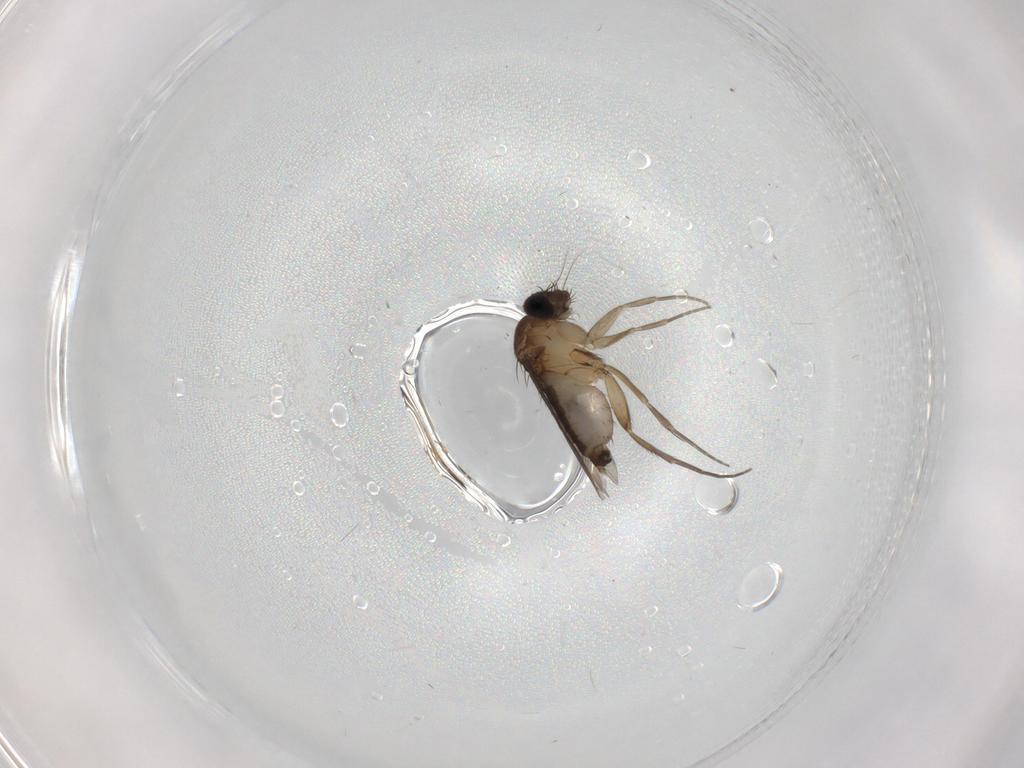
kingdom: Animalia
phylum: Arthropoda
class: Insecta
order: Diptera
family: Phoridae
